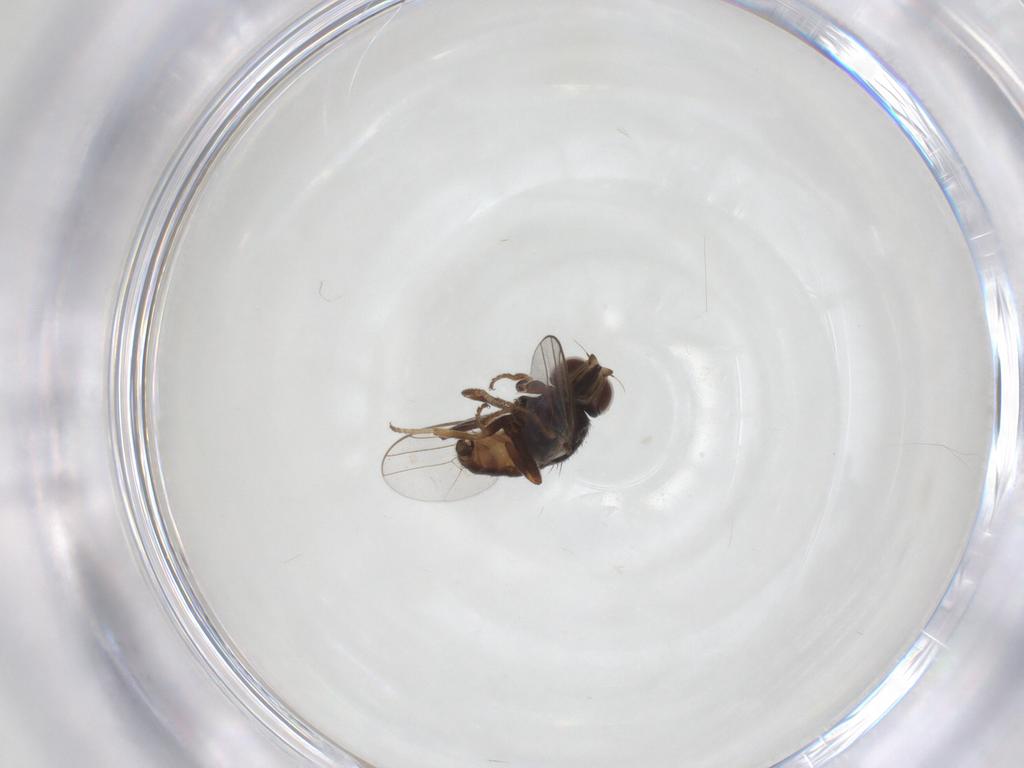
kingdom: Animalia
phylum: Arthropoda
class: Insecta
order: Diptera
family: Chloropidae
